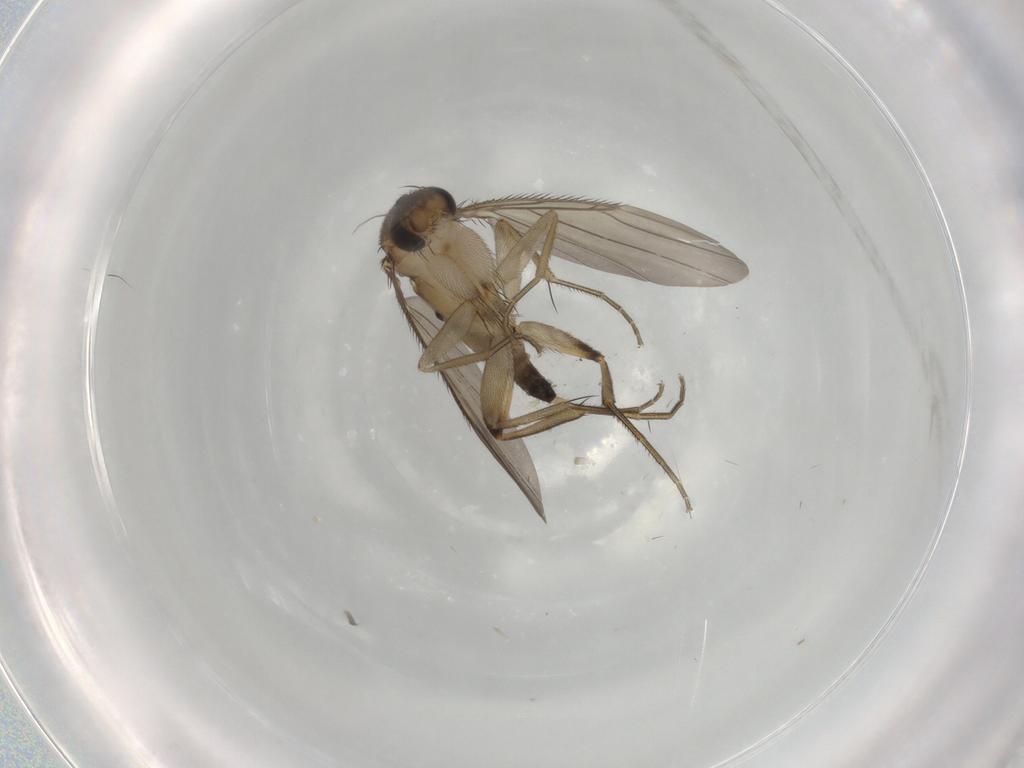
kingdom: Animalia
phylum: Arthropoda
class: Insecta
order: Diptera
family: Phoridae
